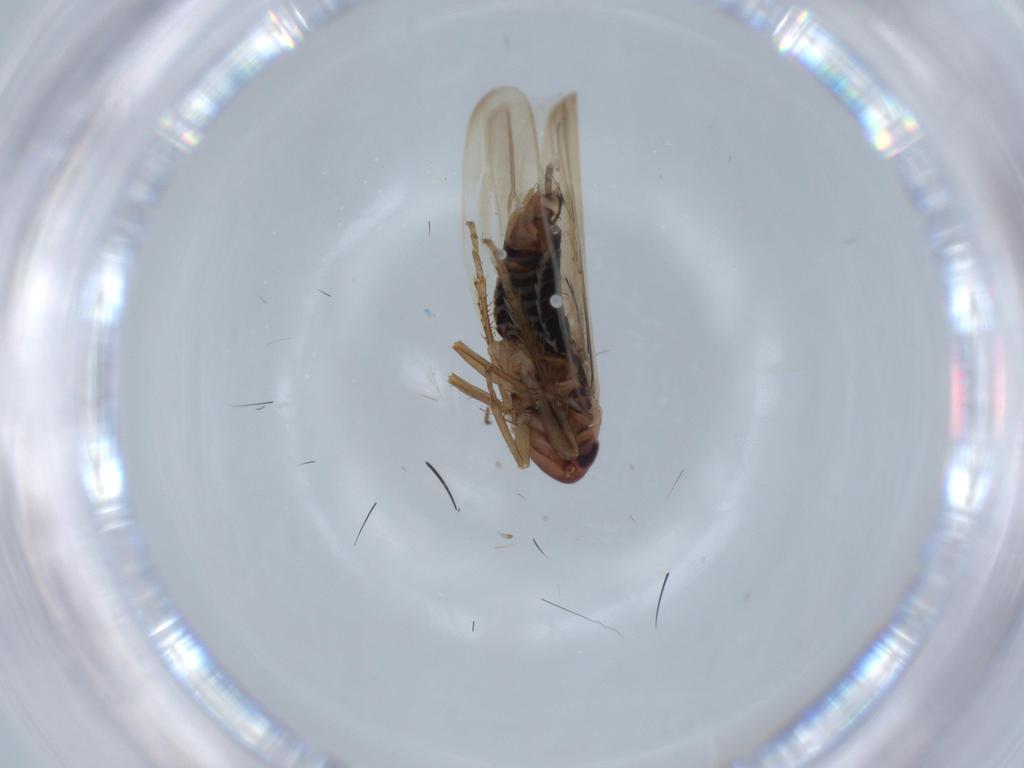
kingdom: Animalia
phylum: Arthropoda
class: Insecta
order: Hemiptera
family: Cicadellidae
